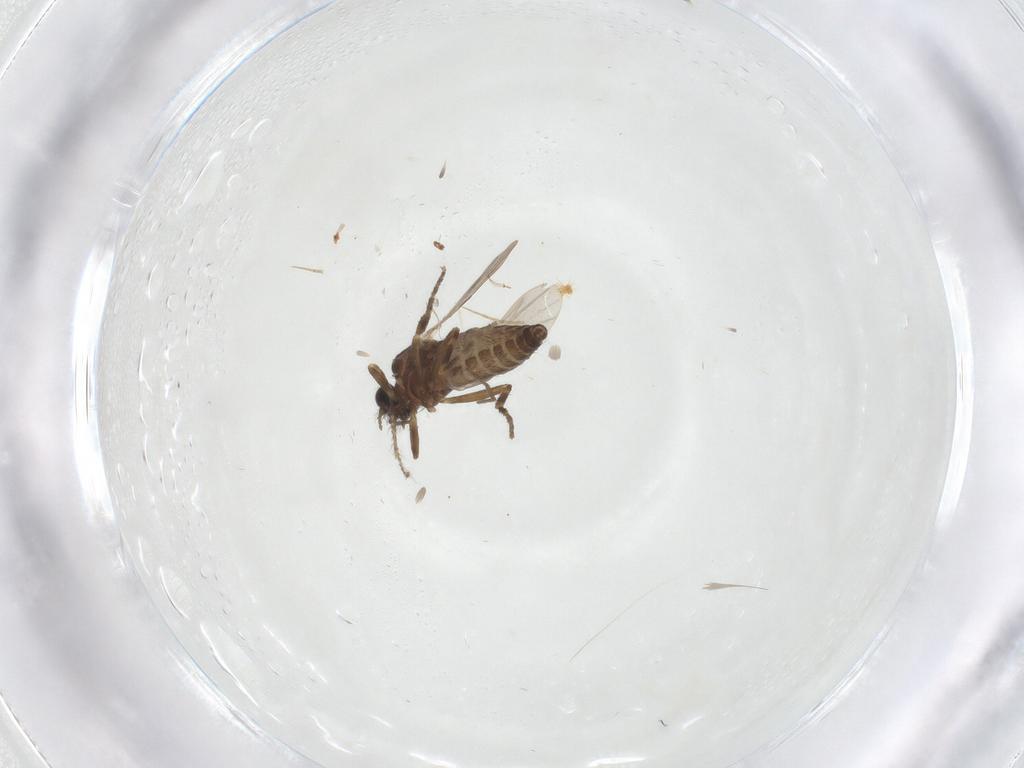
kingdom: Animalia
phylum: Arthropoda
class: Insecta
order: Diptera
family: Ceratopogonidae
